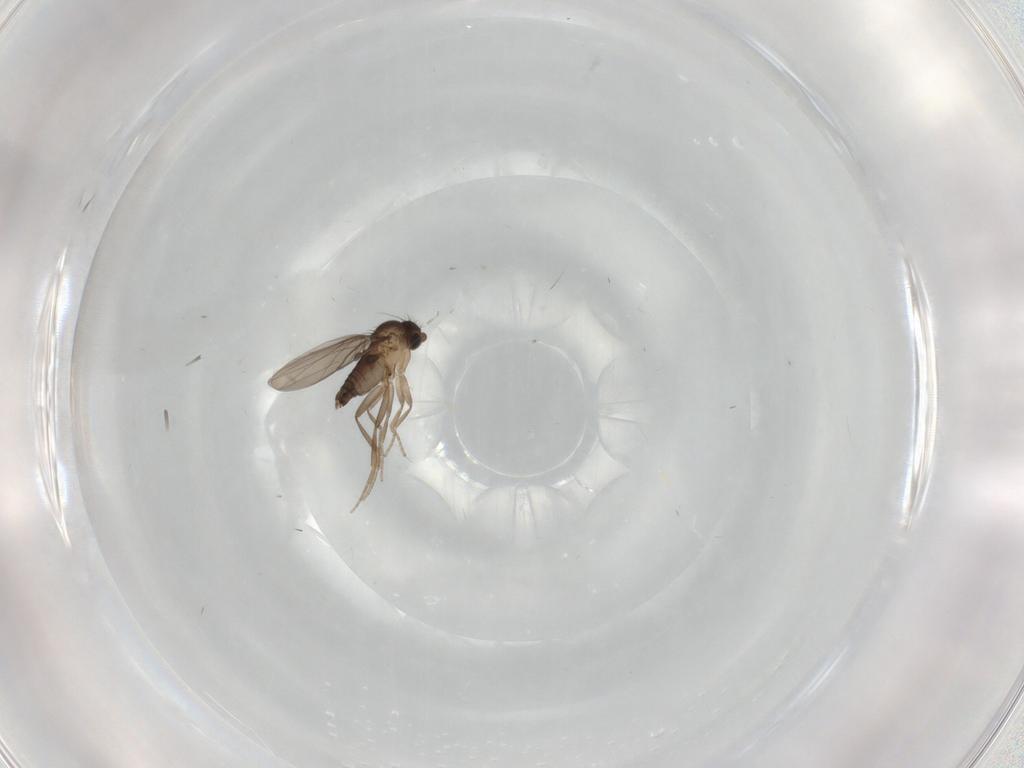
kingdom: Animalia
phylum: Arthropoda
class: Insecta
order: Diptera
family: Phoridae
